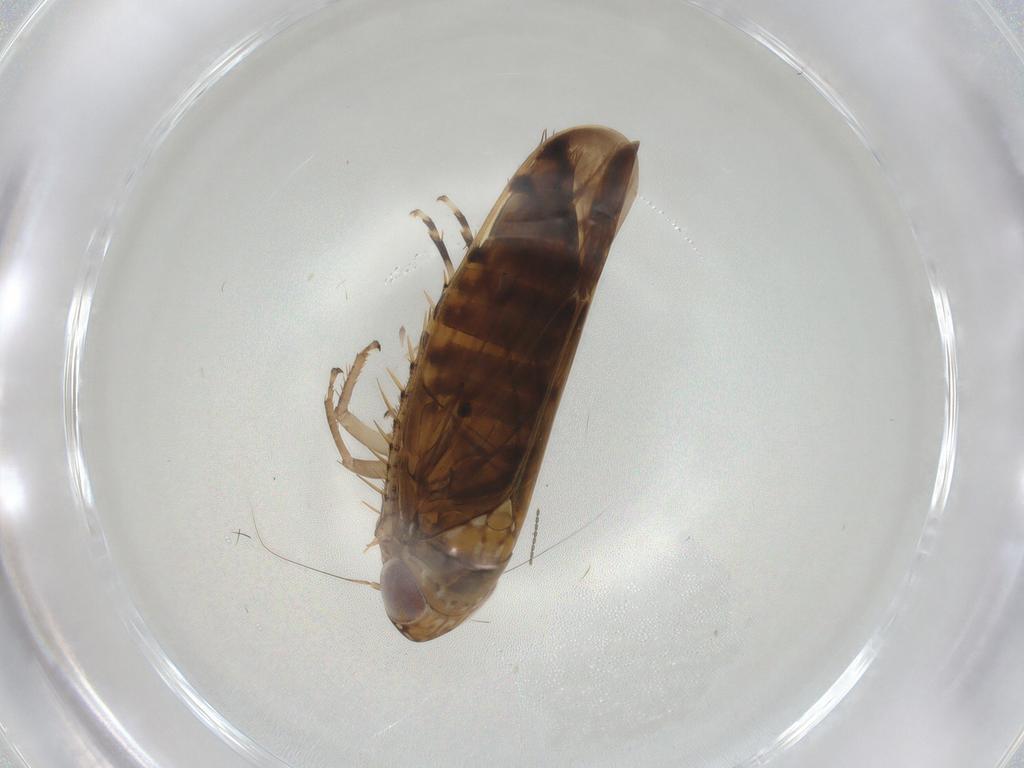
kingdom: Animalia
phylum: Arthropoda
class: Insecta
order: Hemiptera
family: Cicadellidae
